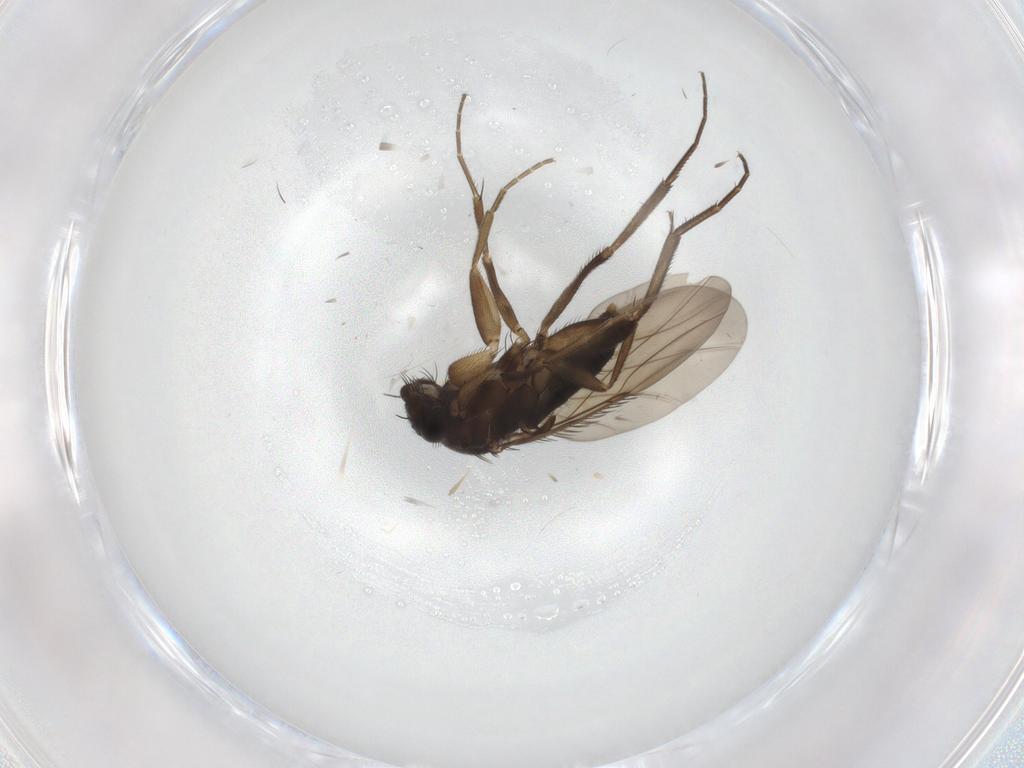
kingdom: Animalia
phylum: Arthropoda
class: Insecta
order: Diptera
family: Phoridae
